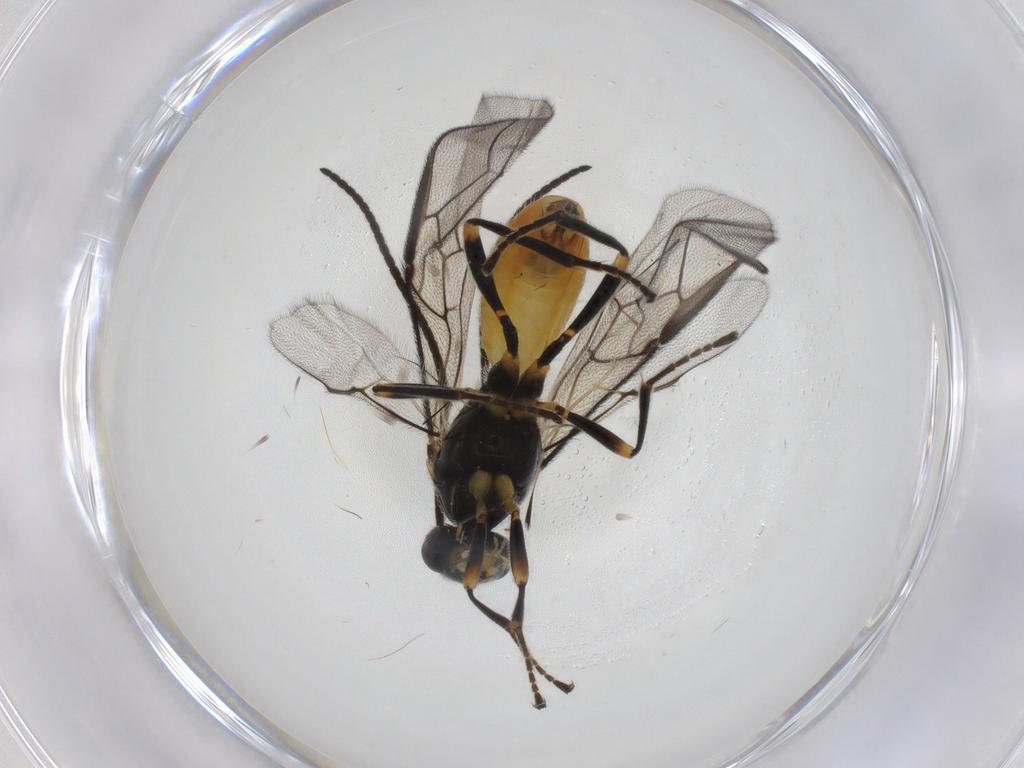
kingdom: Animalia
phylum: Arthropoda
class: Insecta
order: Hymenoptera
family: Braconidae
